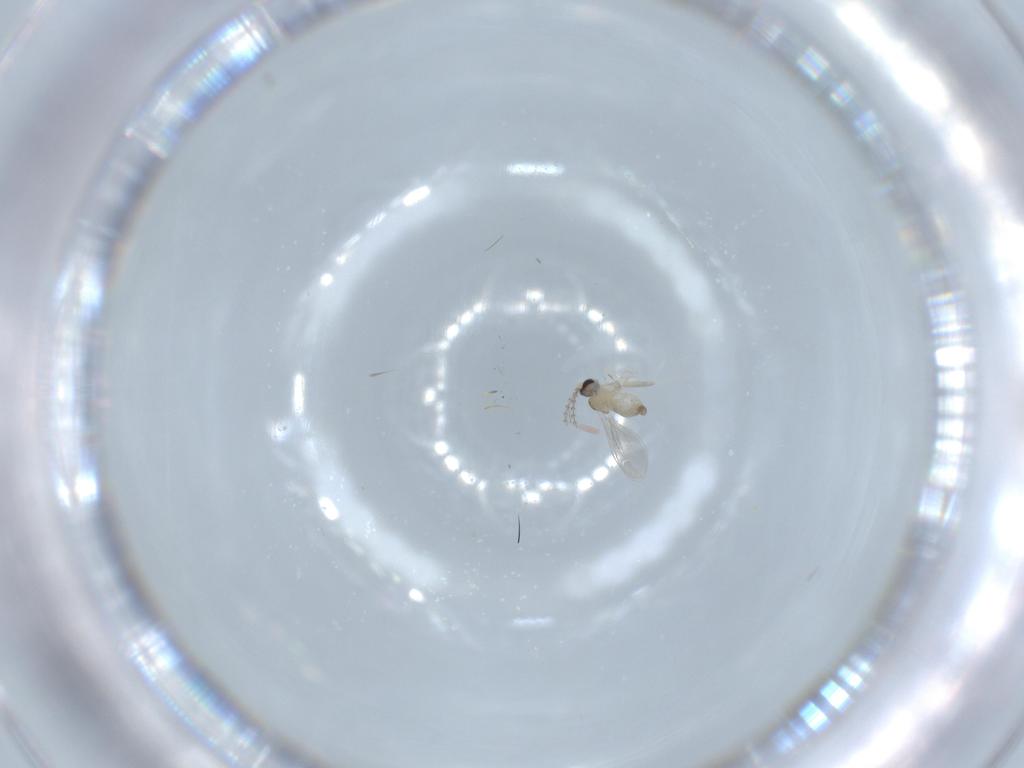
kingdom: Animalia
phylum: Arthropoda
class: Insecta
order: Diptera
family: Cecidomyiidae
